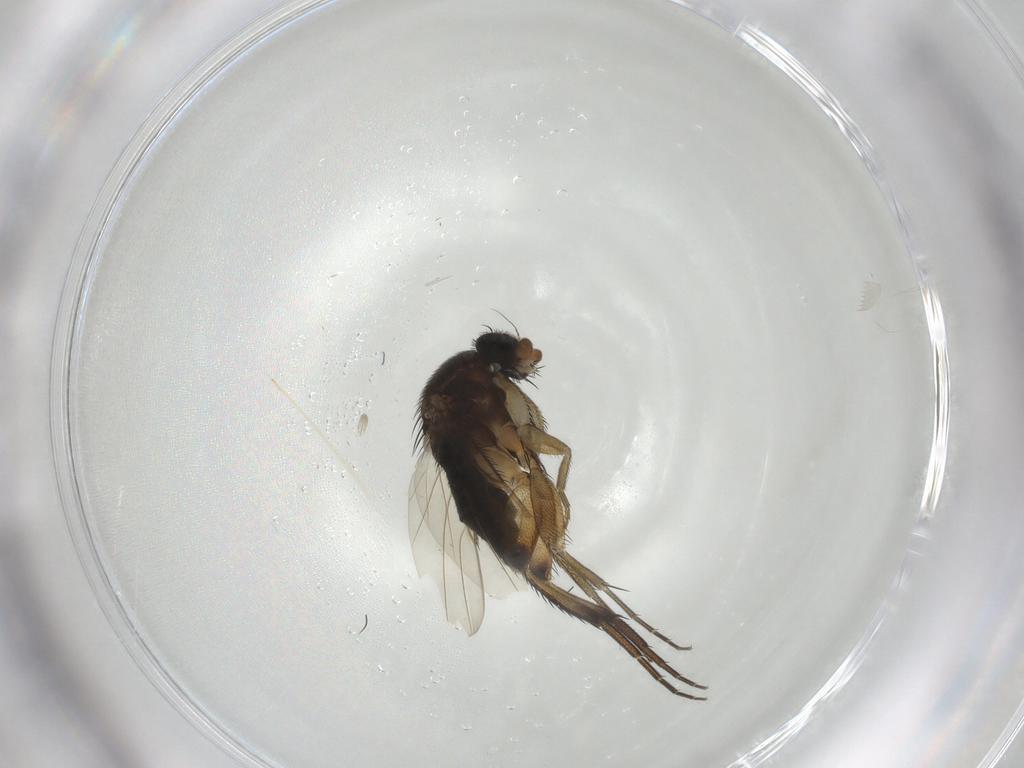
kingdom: Animalia
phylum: Arthropoda
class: Insecta
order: Diptera
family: Phoridae
